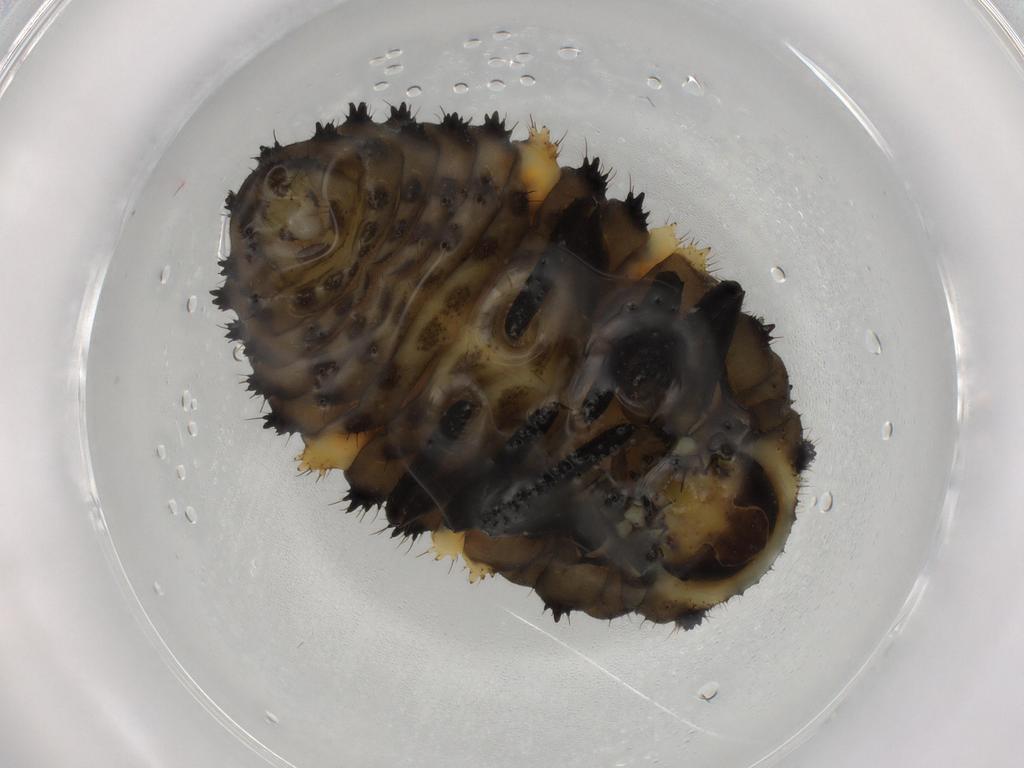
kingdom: Animalia
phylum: Arthropoda
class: Insecta
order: Coleoptera
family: Coccinellidae
